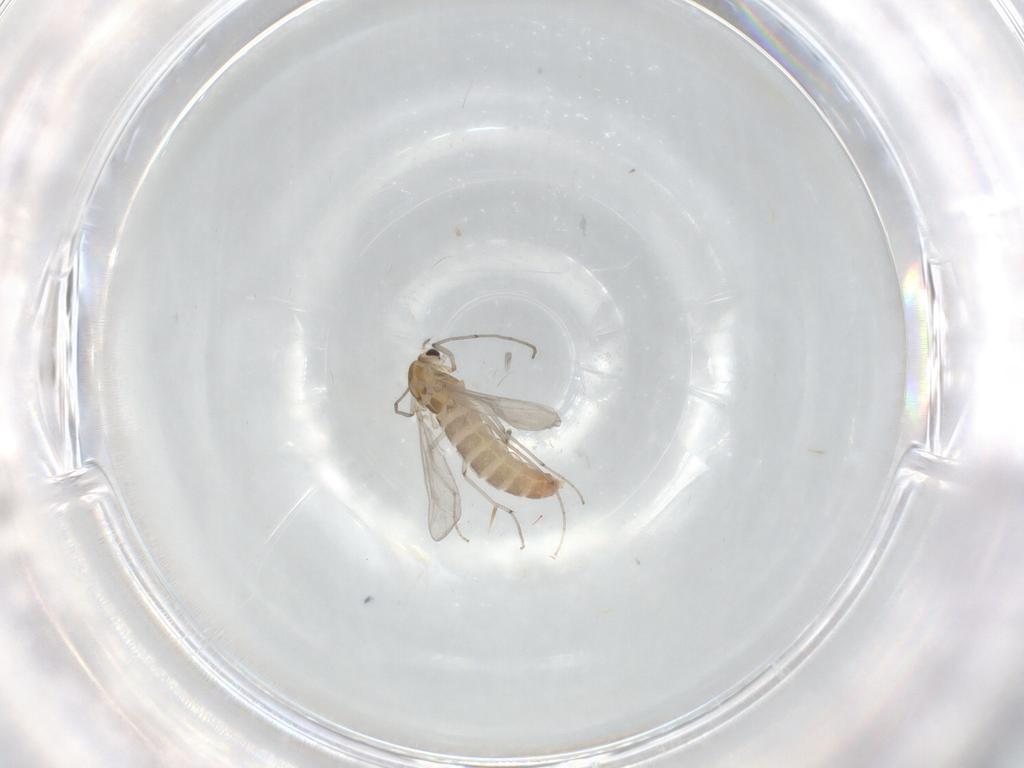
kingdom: Animalia
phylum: Arthropoda
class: Insecta
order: Diptera
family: Chironomidae
